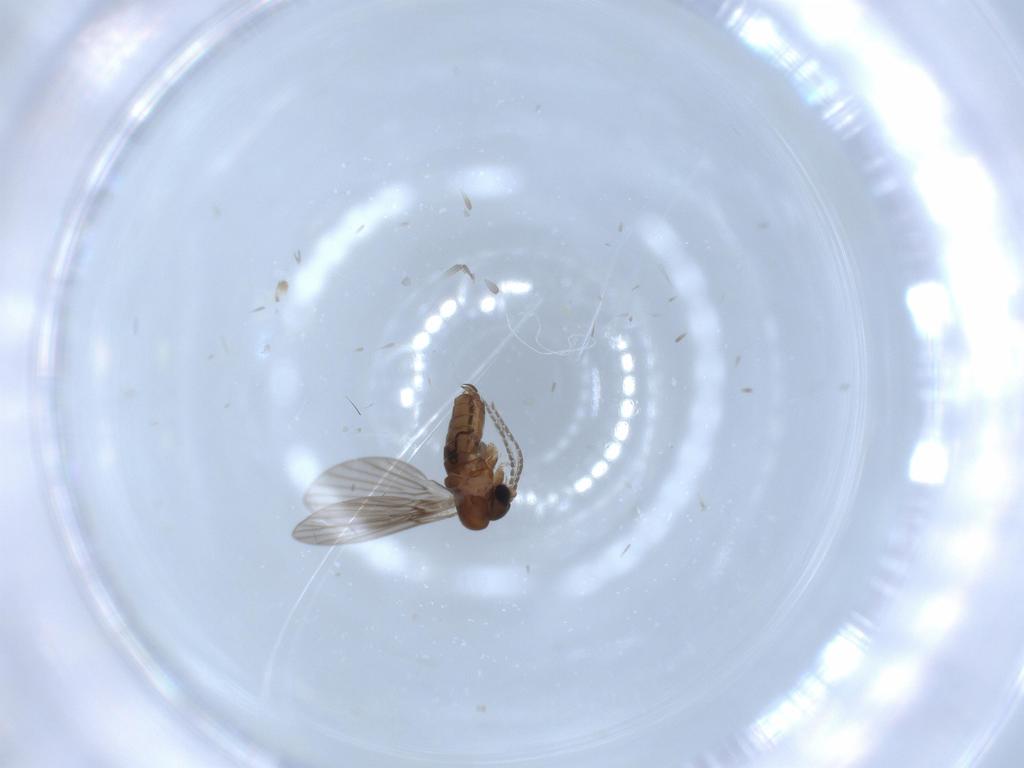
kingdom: Animalia
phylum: Arthropoda
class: Insecta
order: Diptera
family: Psychodidae
